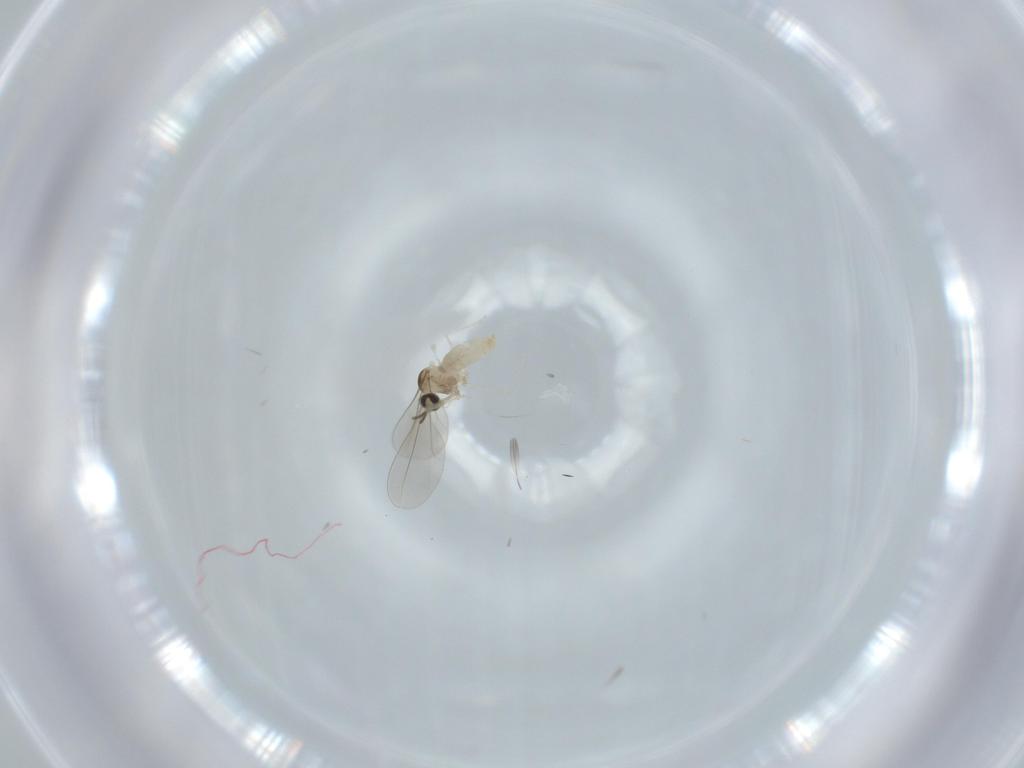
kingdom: Animalia
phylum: Arthropoda
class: Insecta
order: Diptera
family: Cecidomyiidae
